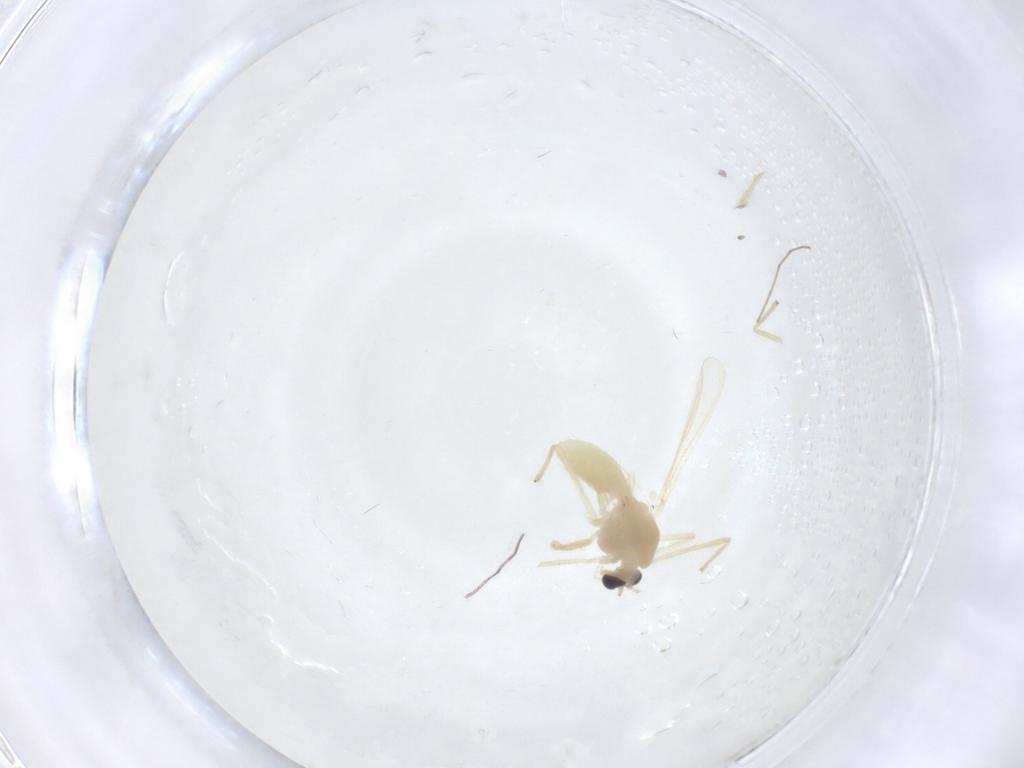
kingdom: Animalia
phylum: Arthropoda
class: Insecta
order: Diptera
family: Chironomidae
